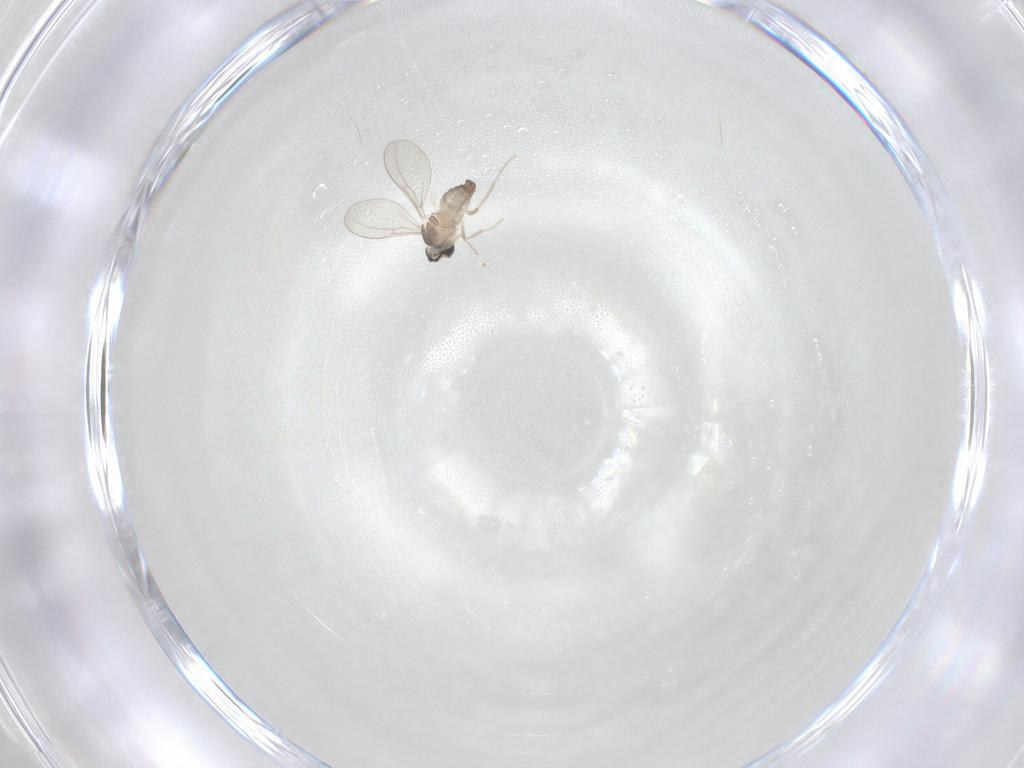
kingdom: Animalia
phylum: Arthropoda
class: Insecta
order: Diptera
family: Cecidomyiidae
